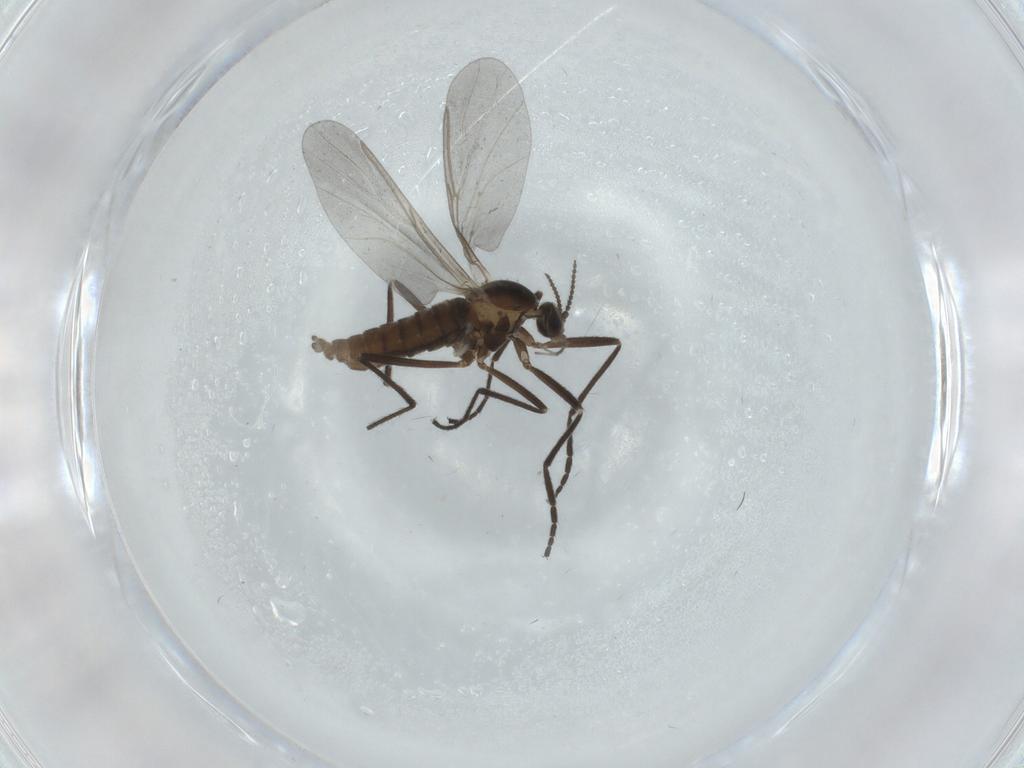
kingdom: Animalia
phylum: Arthropoda
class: Insecta
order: Diptera
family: Cecidomyiidae
